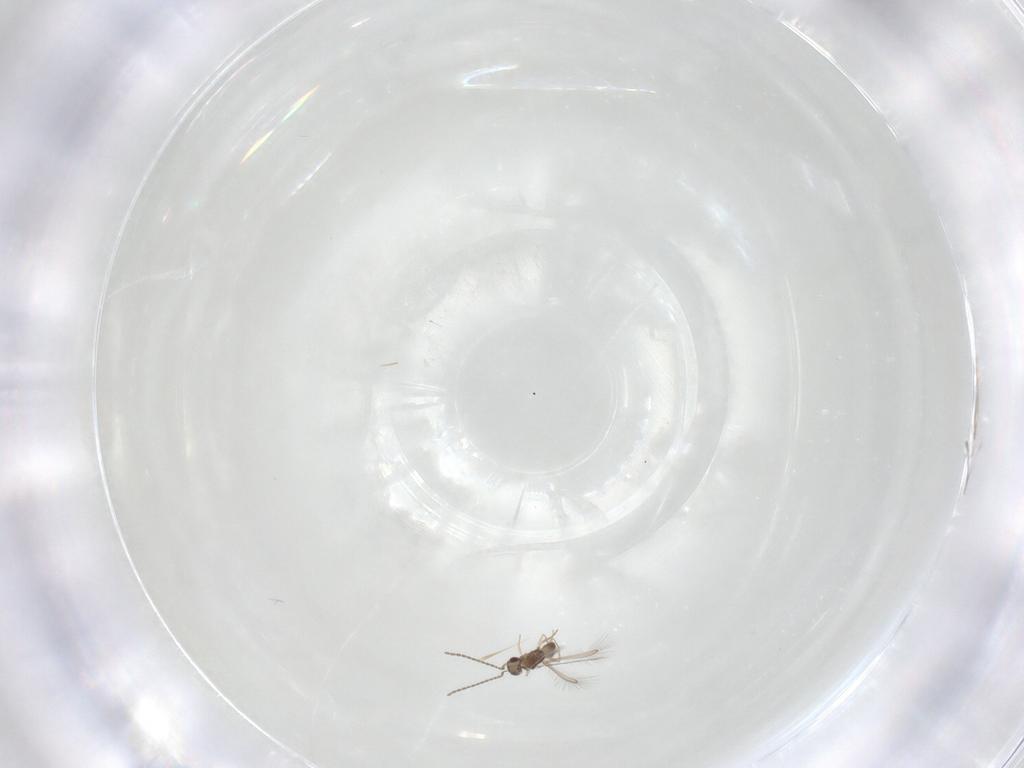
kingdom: Animalia
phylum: Arthropoda
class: Insecta
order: Hymenoptera
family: Mymaridae
